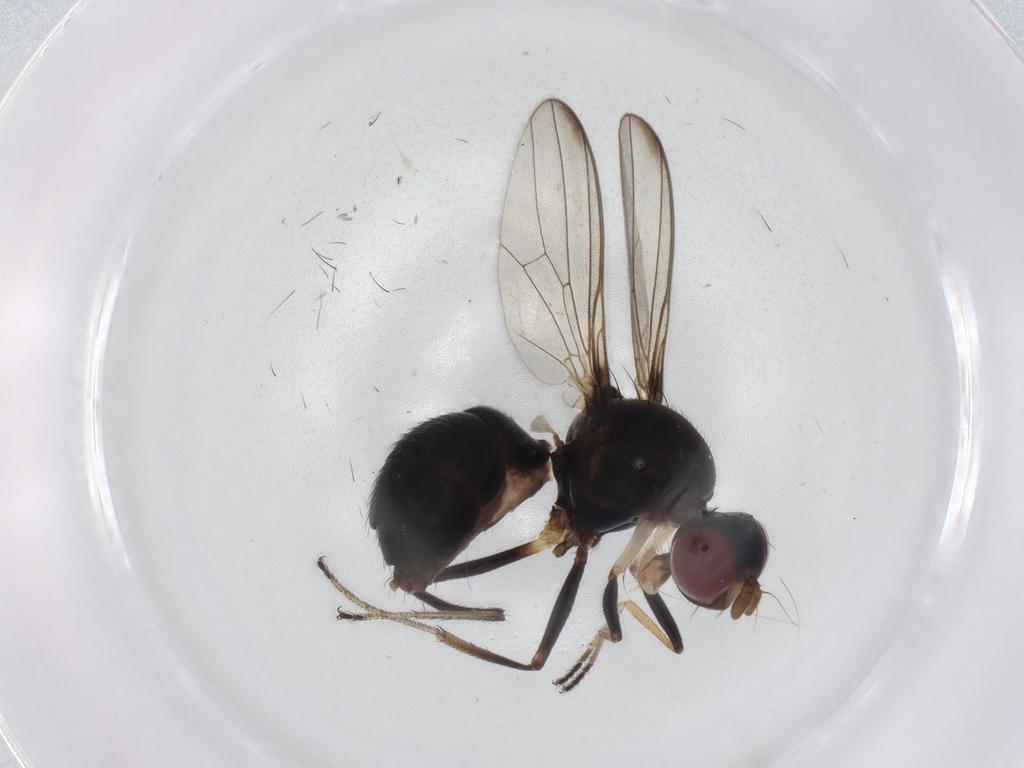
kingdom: Animalia
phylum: Arthropoda
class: Insecta
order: Diptera
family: Sepsidae
